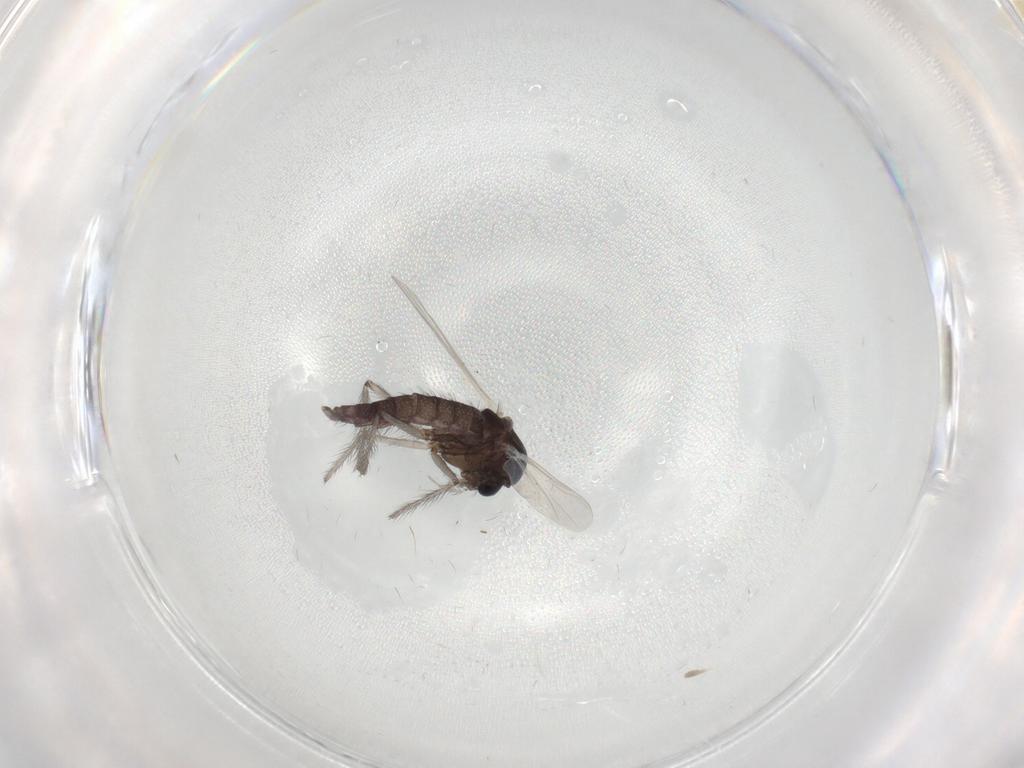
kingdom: Animalia
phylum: Arthropoda
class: Insecta
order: Diptera
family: Chironomidae
